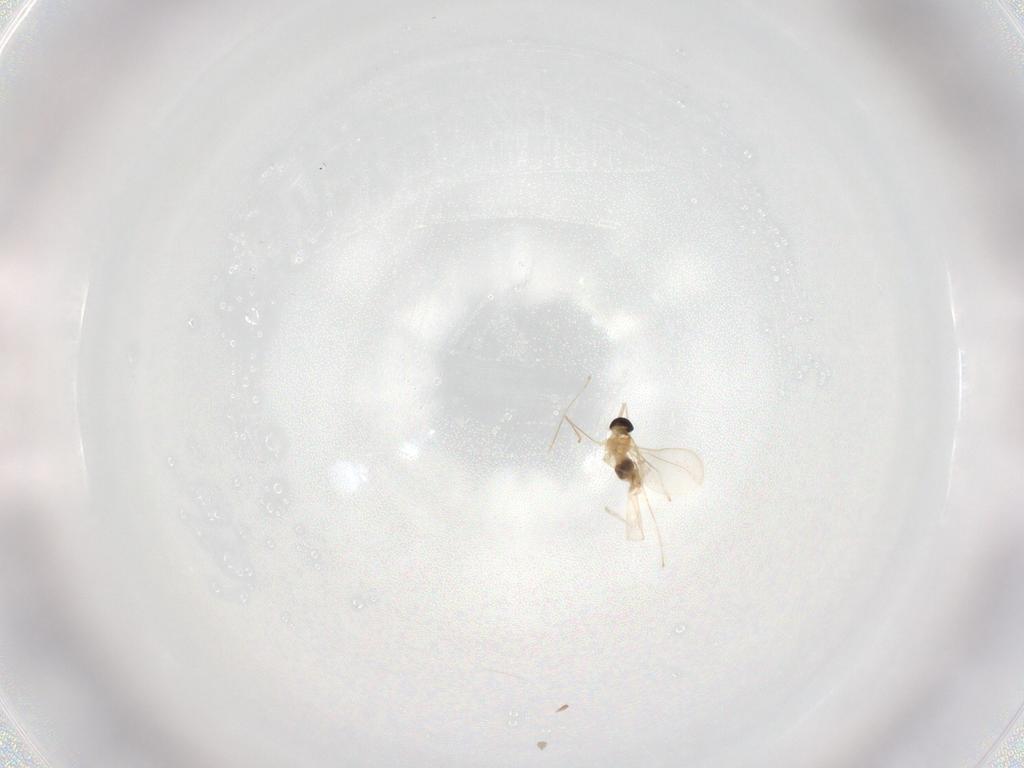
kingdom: Animalia
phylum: Arthropoda
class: Insecta
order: Diptera
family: Cecidomyiidae
